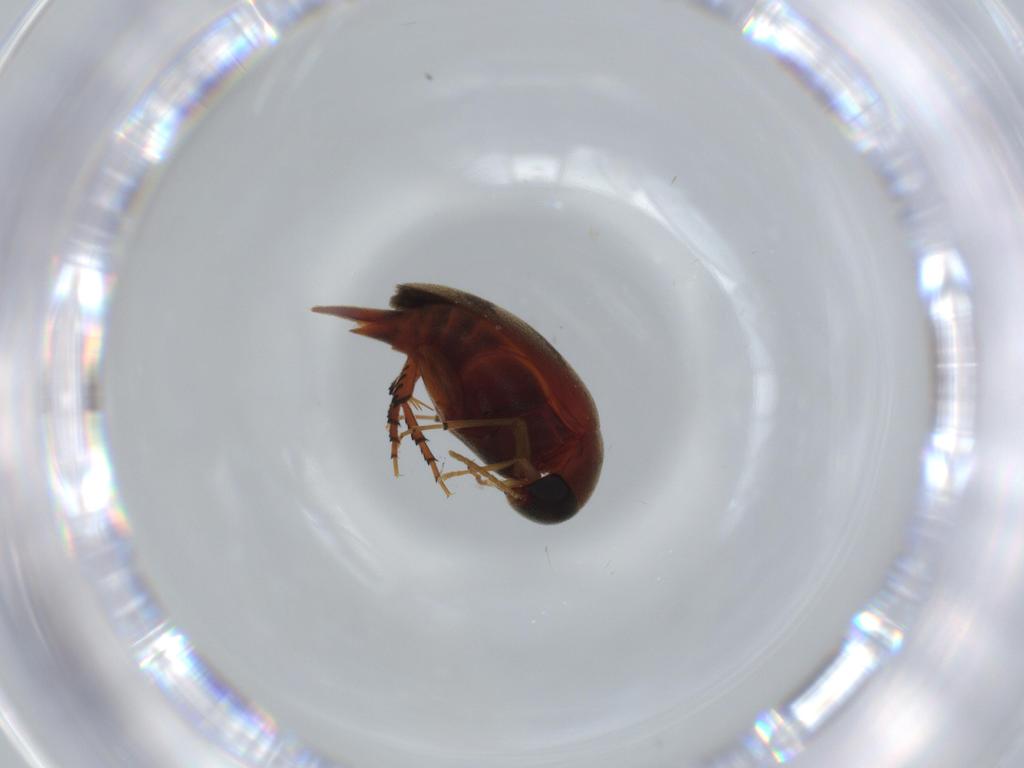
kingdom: Animalia
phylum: Arthropoda
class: Insecta
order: Coleoptera
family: Mordellidae
